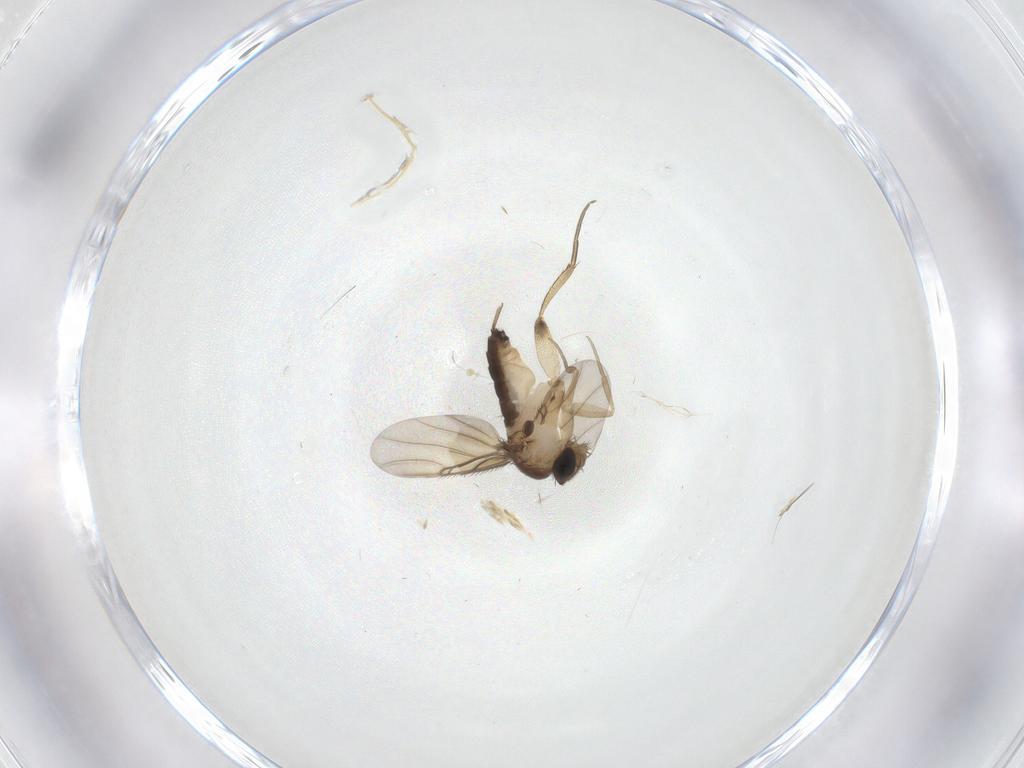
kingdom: Animalia
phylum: Arthropoda
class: Insecta
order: Diptera
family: Phoridae
